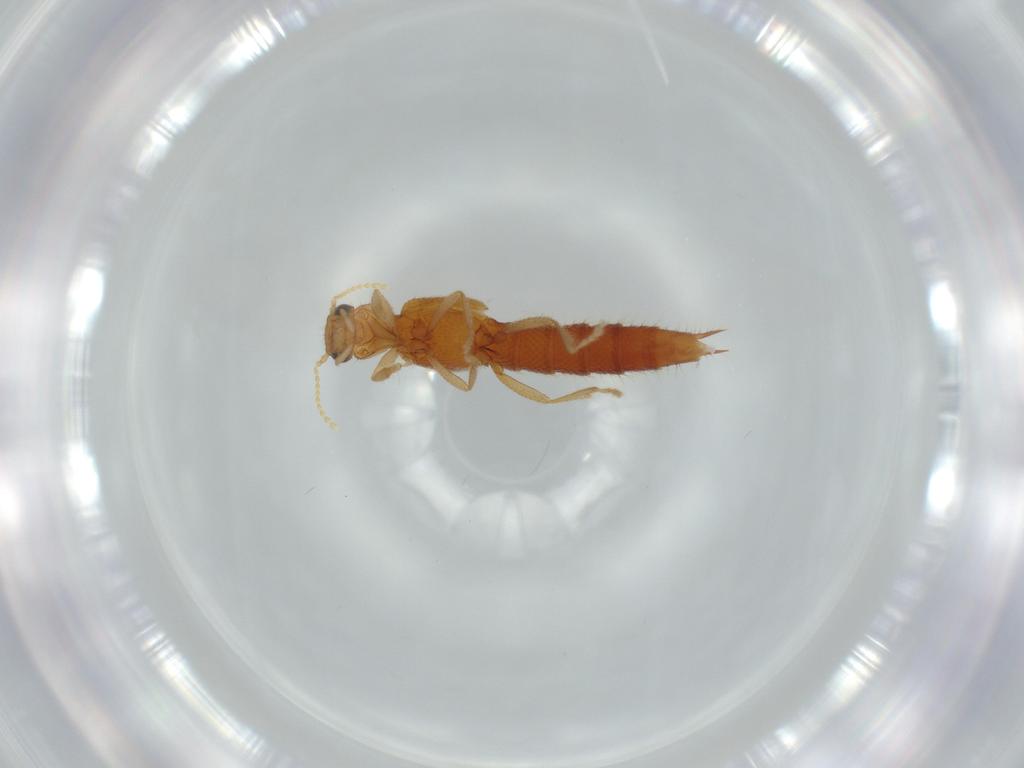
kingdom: Animalia
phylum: Arthropoda
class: Insecta
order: Coleoptera
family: Staphylinidae
